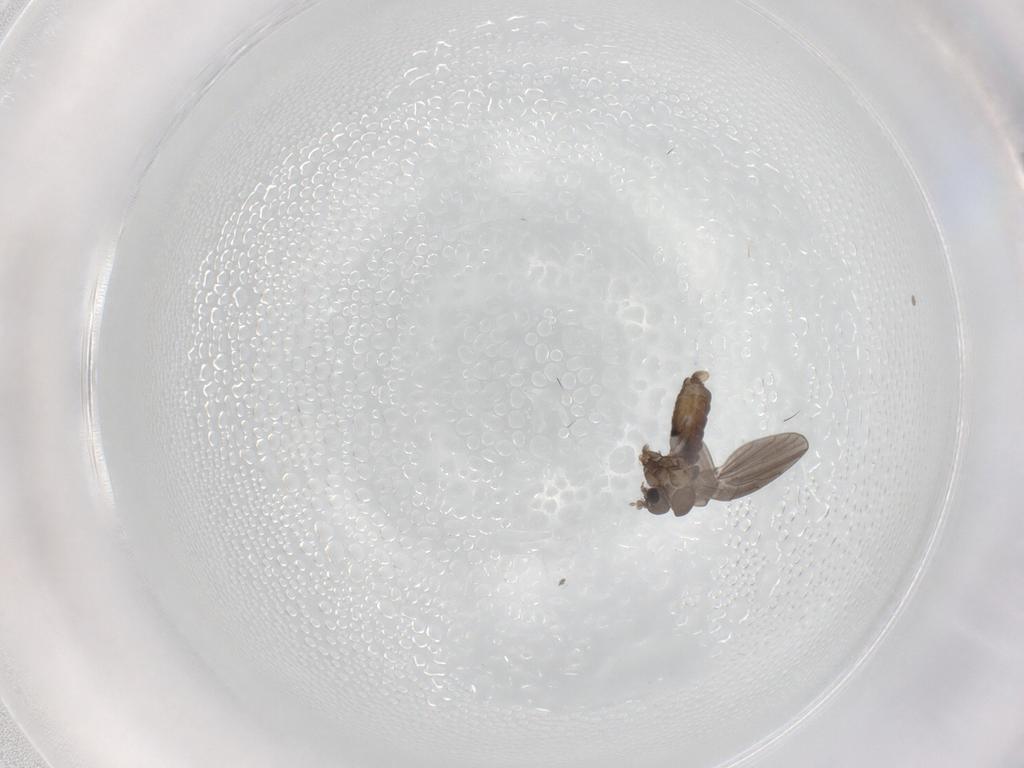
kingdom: Animalia
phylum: Arthropoda
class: Insecta
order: Diptera
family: Psychodidae
